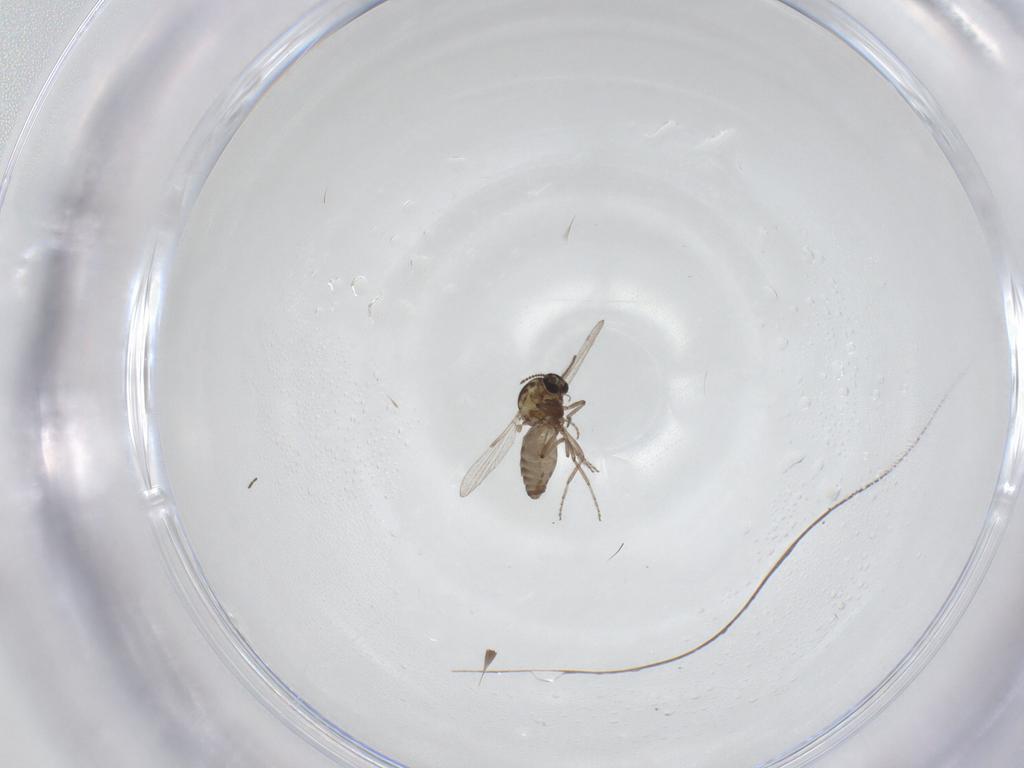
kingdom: Animalia
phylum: Arthropoda
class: Insecta
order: Diptera
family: Ceratopogonidae
